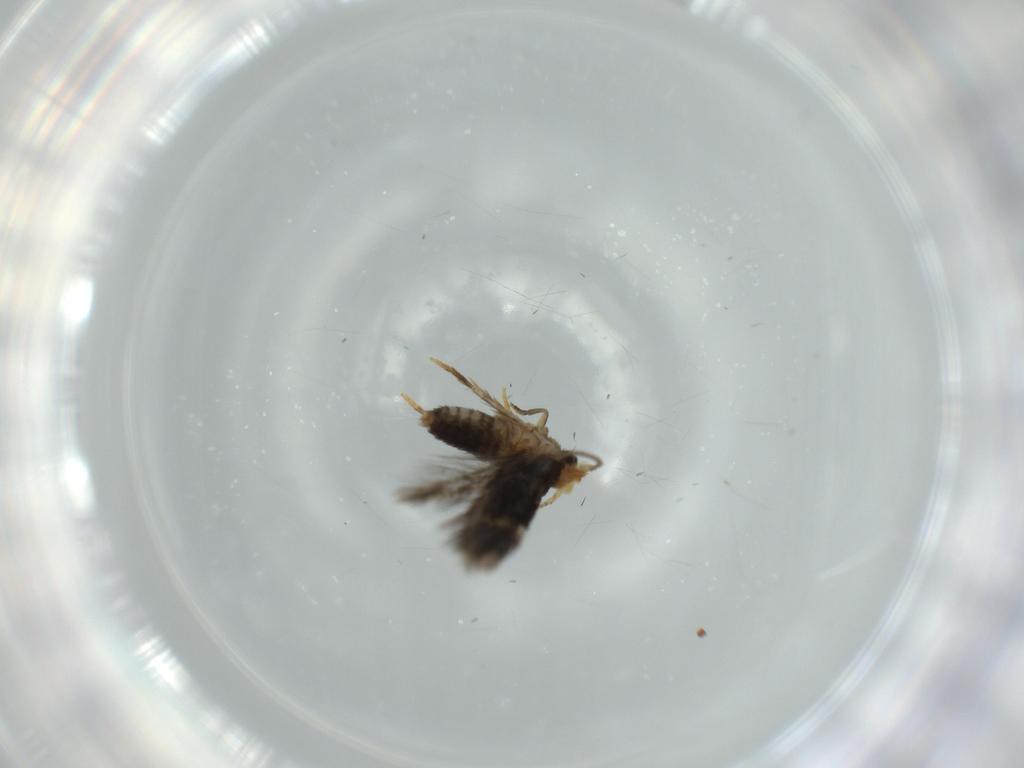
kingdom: Animalia
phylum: Arthropoda
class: Insecta
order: Lepidoptera
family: Nepticulidae
